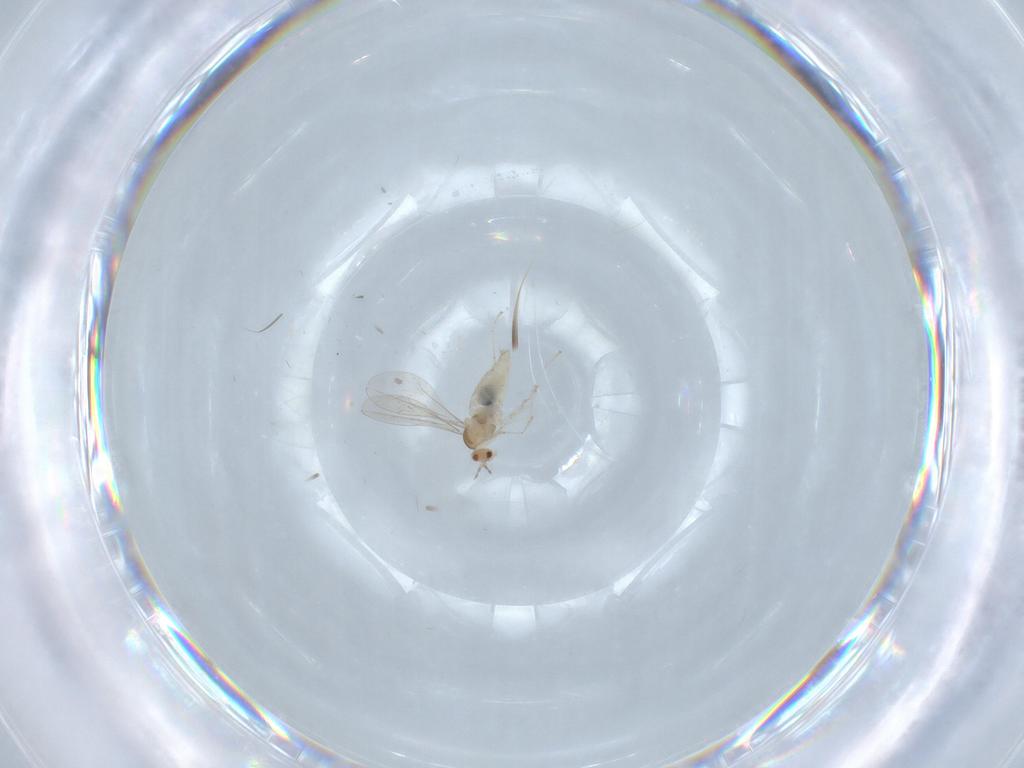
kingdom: Animalia
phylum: Arthropoda
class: Insecta
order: Diptera
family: Cecidomyiidae
